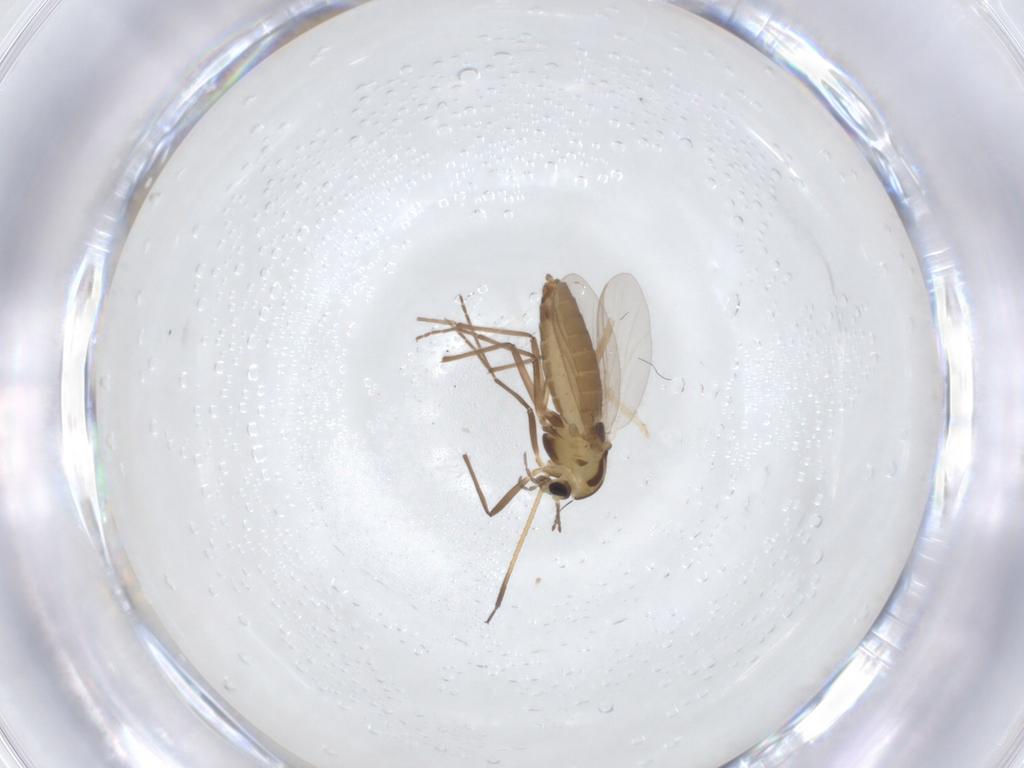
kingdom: Animalia
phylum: Arthropoda
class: Insecta
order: Diptera
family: Chironomidae
